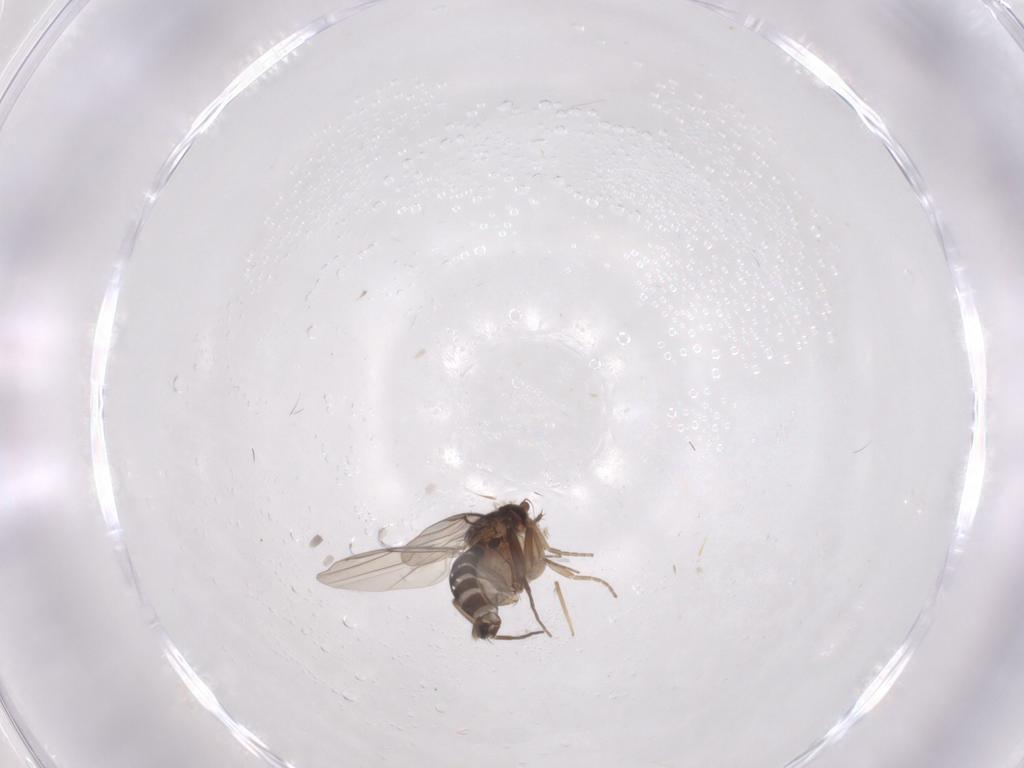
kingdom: Animalia
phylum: Arthropoda
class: Insecta
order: Diptera
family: Phoridae
